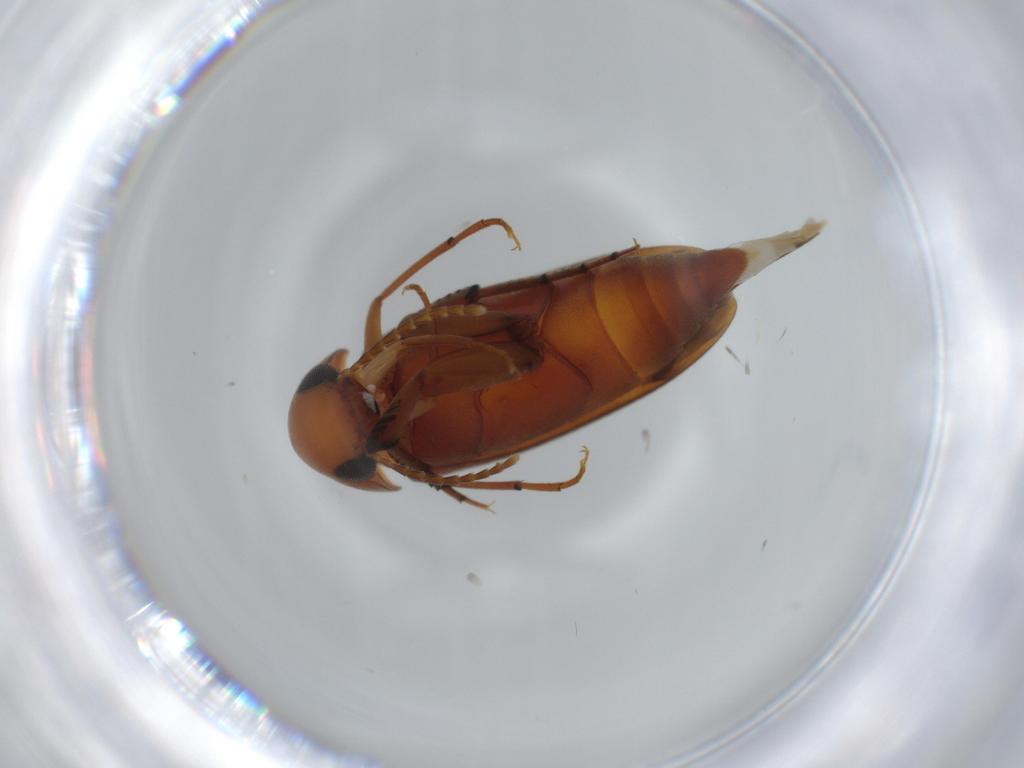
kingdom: Animalia
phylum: Arthropoda
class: Insecta
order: Coleoptera
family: Mordellidae
